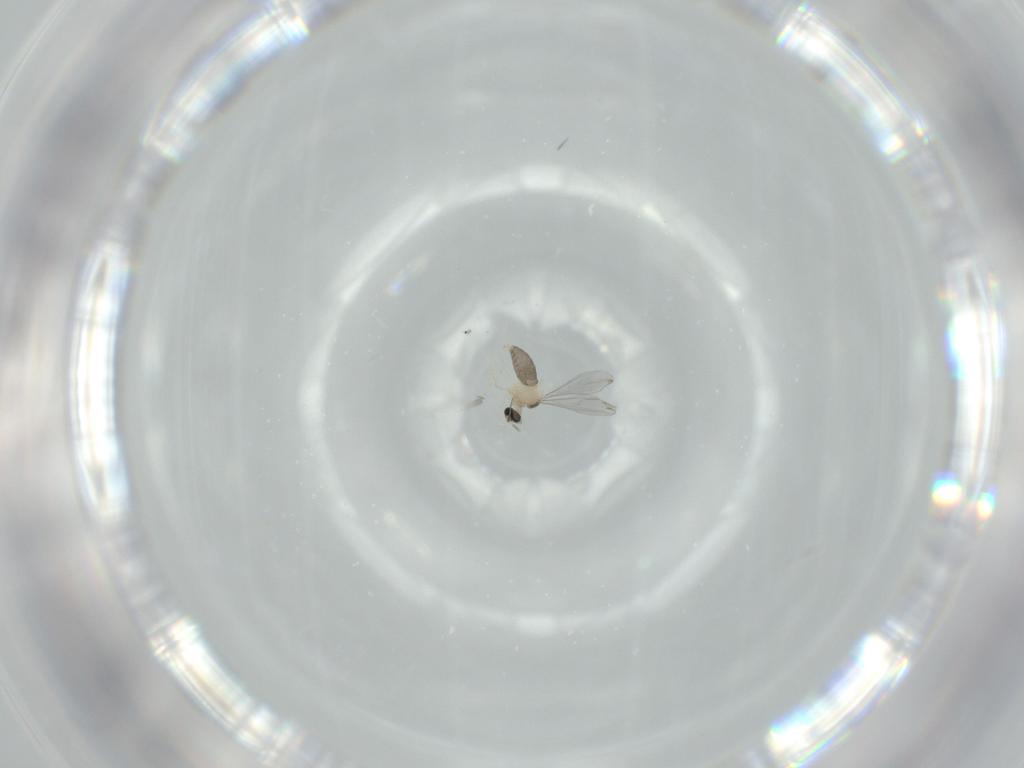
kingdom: Animalia
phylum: Arthropoda
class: Insecta
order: Diptera
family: Cecidomyiidae
